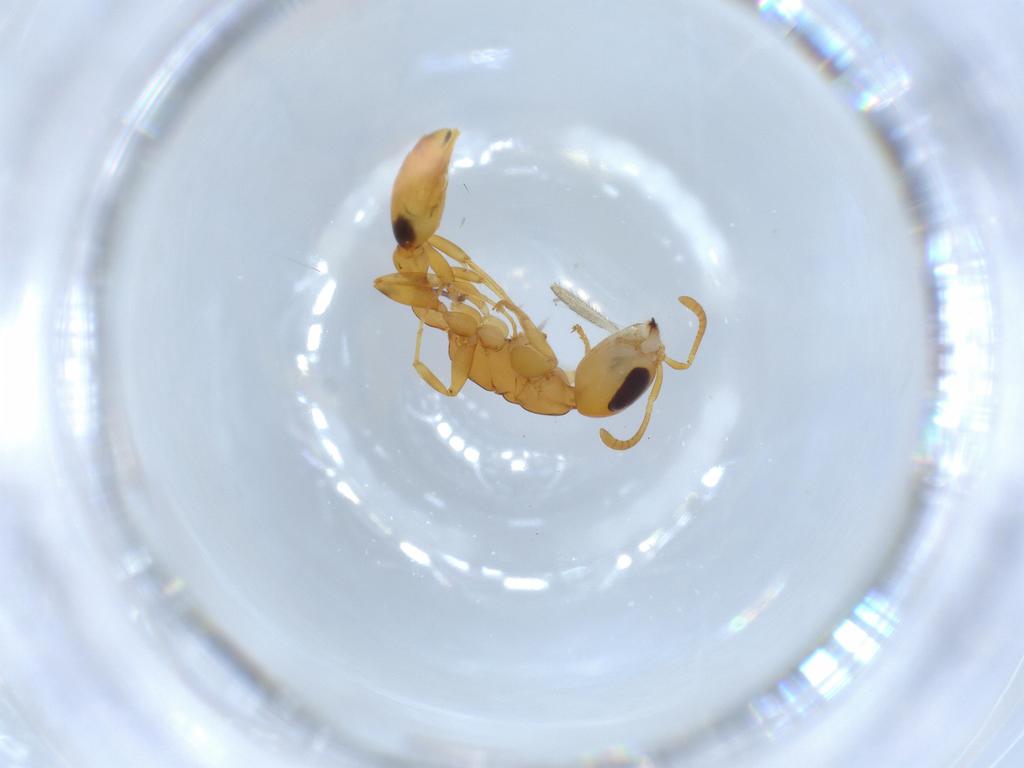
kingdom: Animalia
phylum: Arthropoda
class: Insecta
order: Hymenoptera
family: Formicidae
